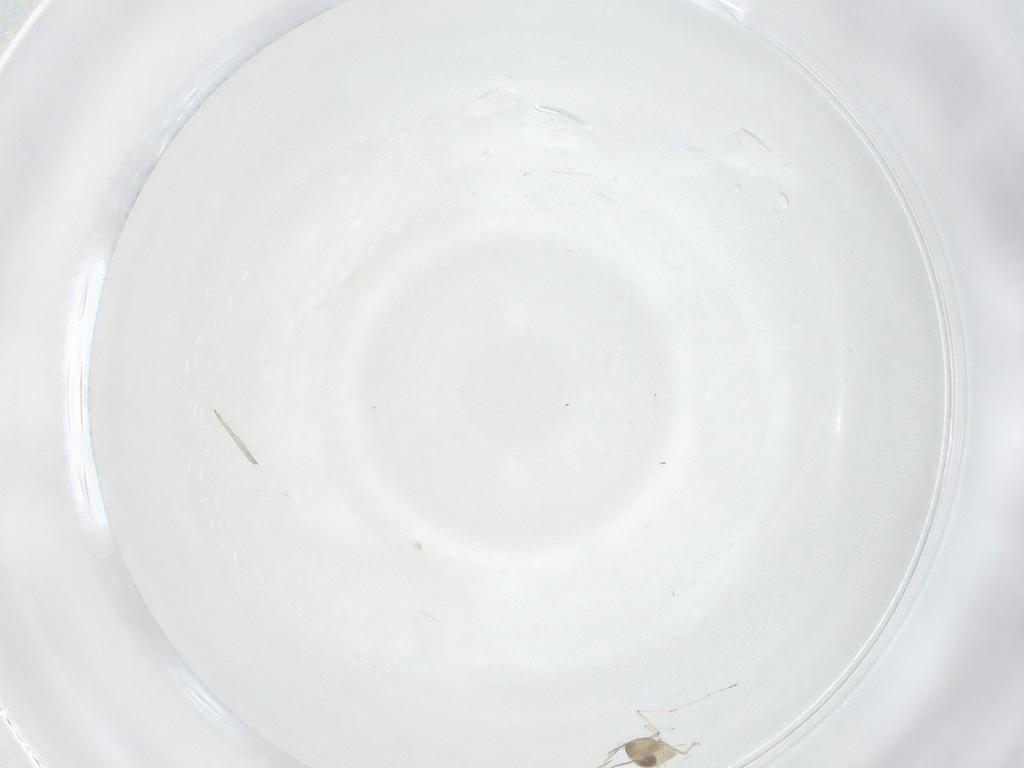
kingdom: Animalia
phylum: Arthropoda
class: Insecta
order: Diptera
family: Cecidomyiidae
